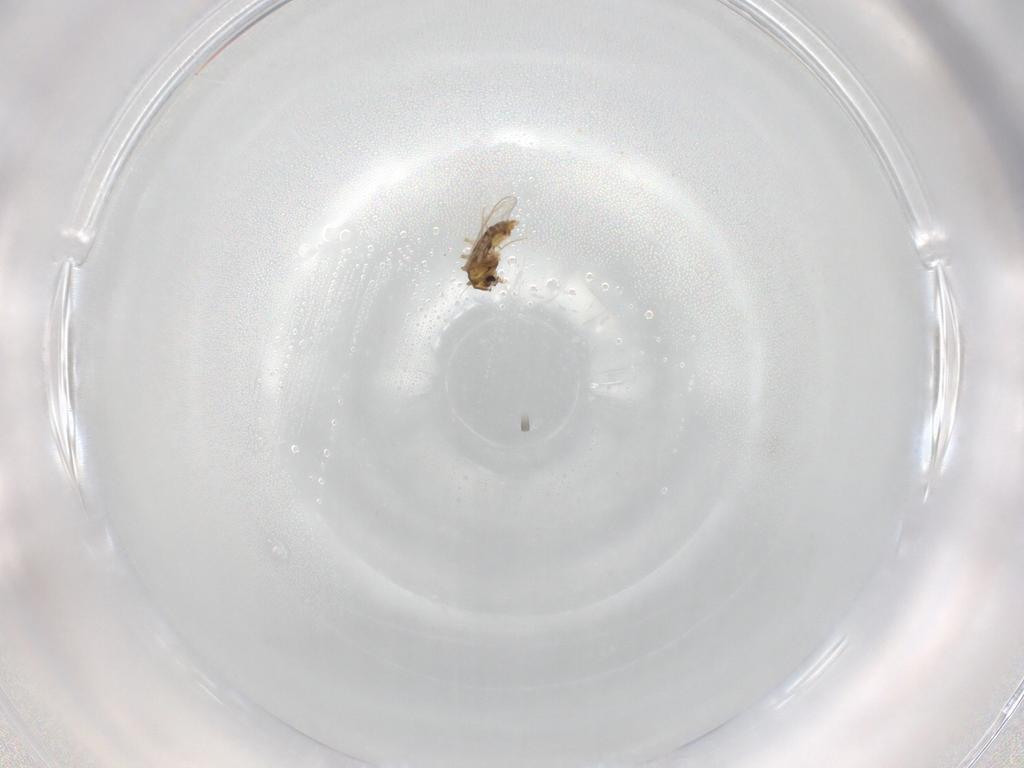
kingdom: Animalia
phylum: Arthropoda
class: Insecta
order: Diptera
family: Chironomidae
